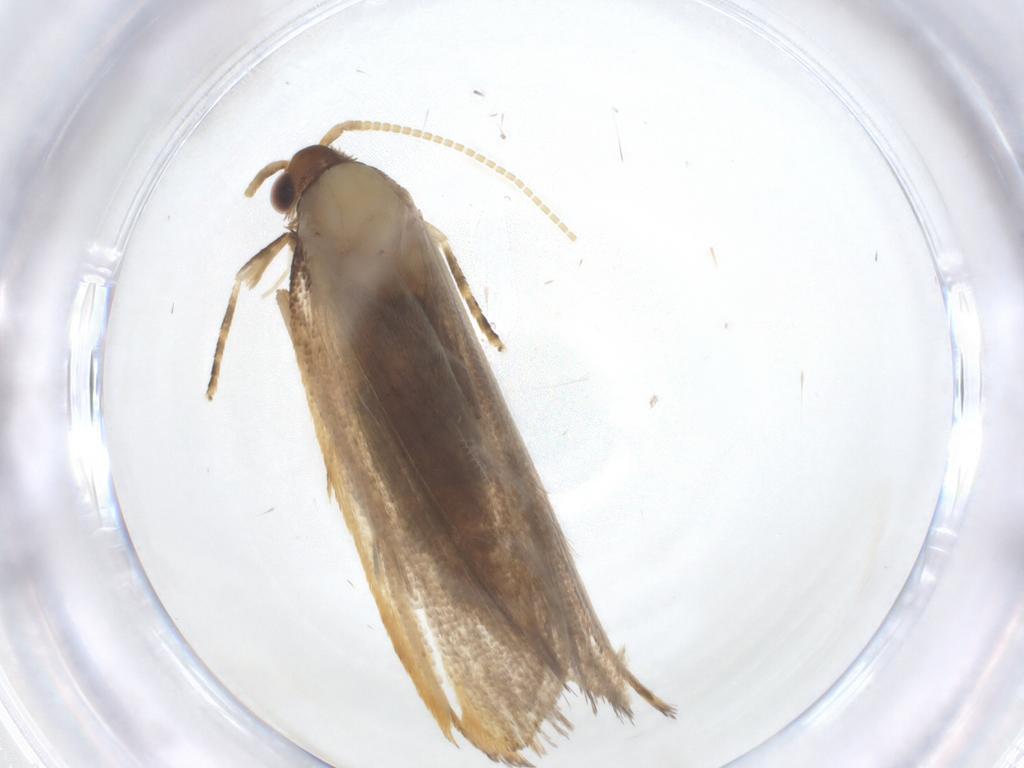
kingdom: Animalia
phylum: Arthropoda
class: Insecta
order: Lepidoptera
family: Lecithoceridae
